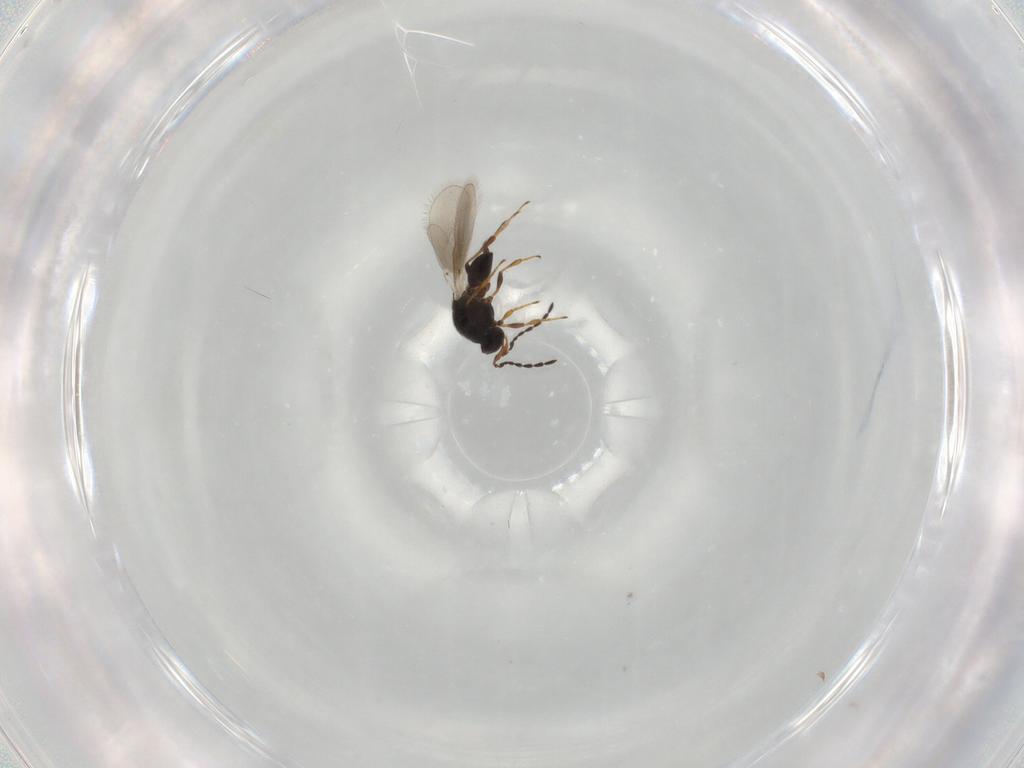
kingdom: Animalia
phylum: Arthropoda
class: Insecta
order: Hymenoptera
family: Platygastridae
